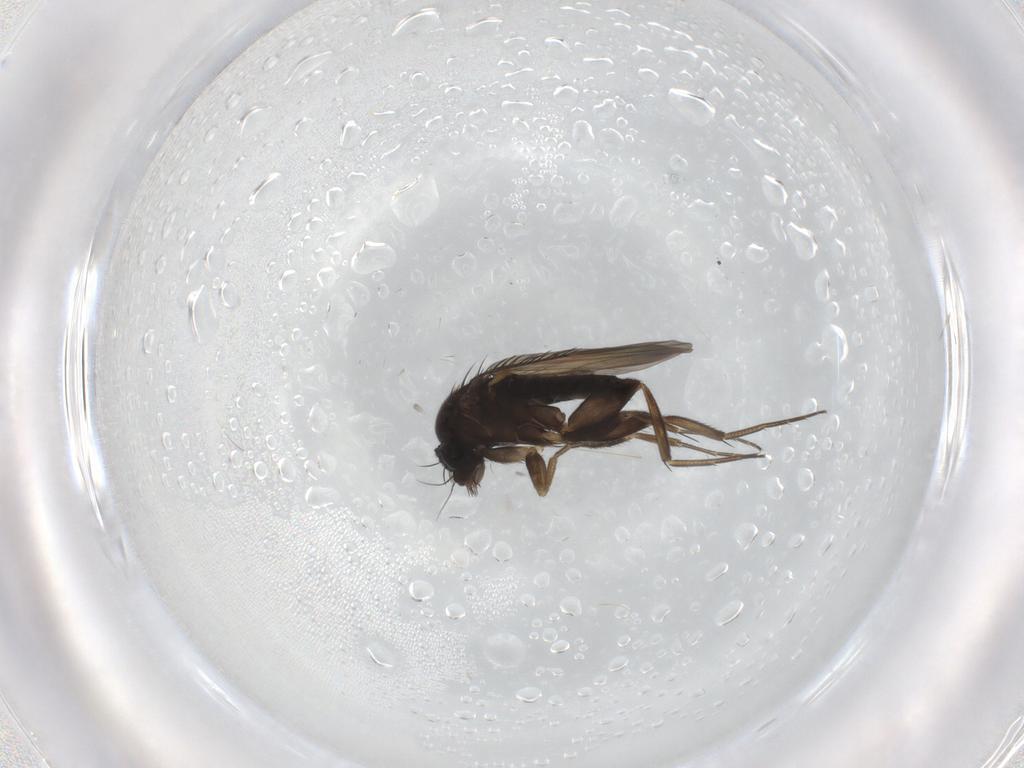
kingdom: Animalia
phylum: Arthropoda
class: Insecta
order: Diptera
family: Phoridae
